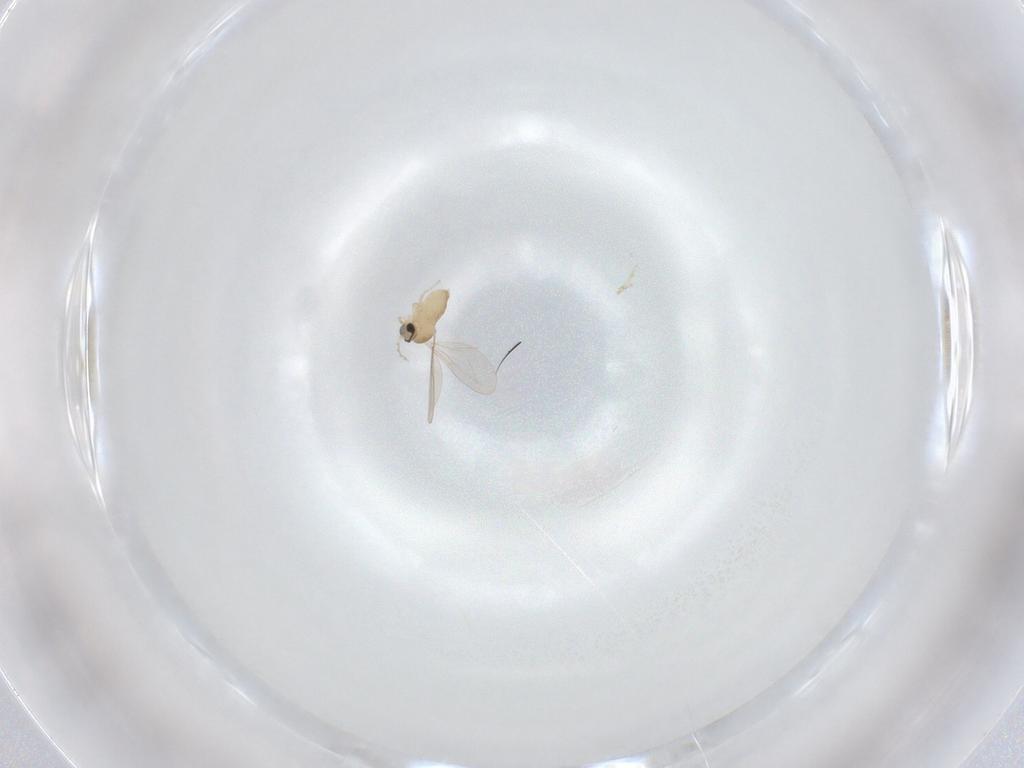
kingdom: Animalia
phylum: Arthropoda
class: Insecta
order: Diptera
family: Cecidomyiidae
